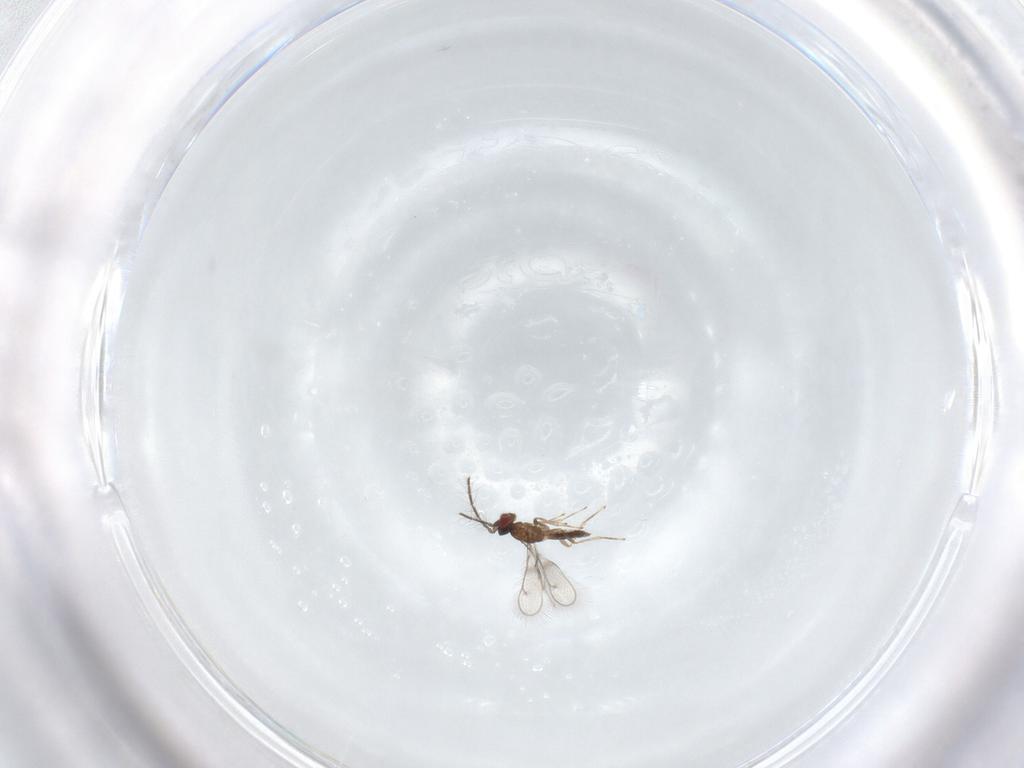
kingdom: Animalia
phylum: Arthropoda
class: Insecta
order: Hymenoptera
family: Eulophidae
